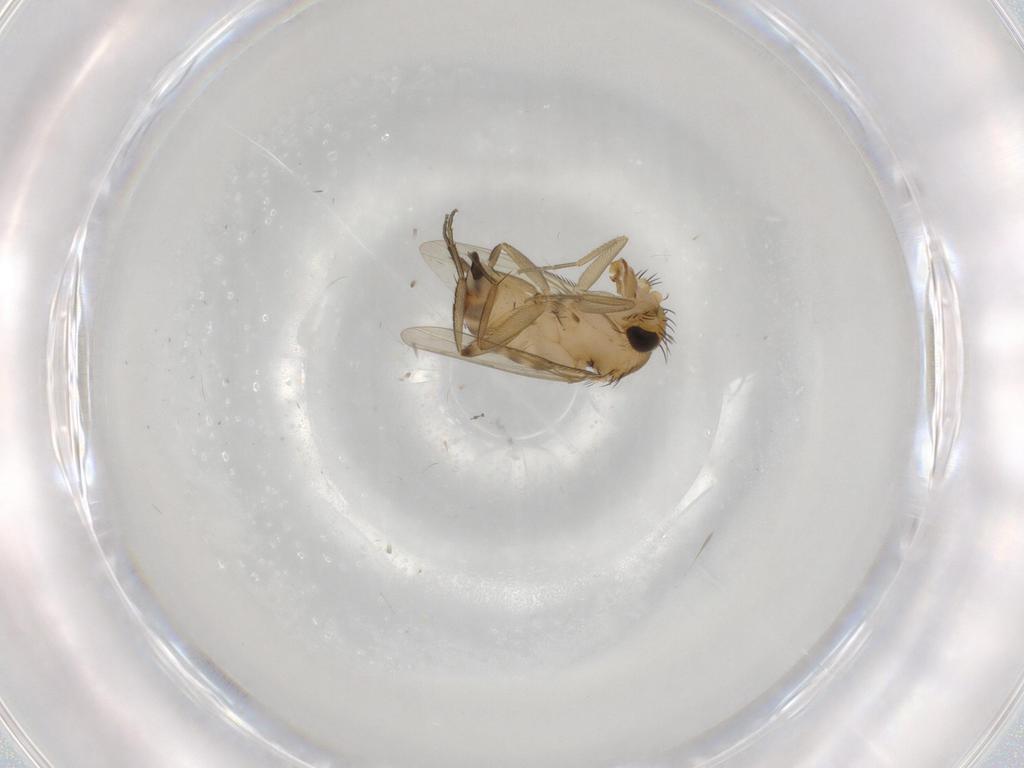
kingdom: Animalia
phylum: Arthropoda
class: Insecta
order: Diptera
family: Phoridae
